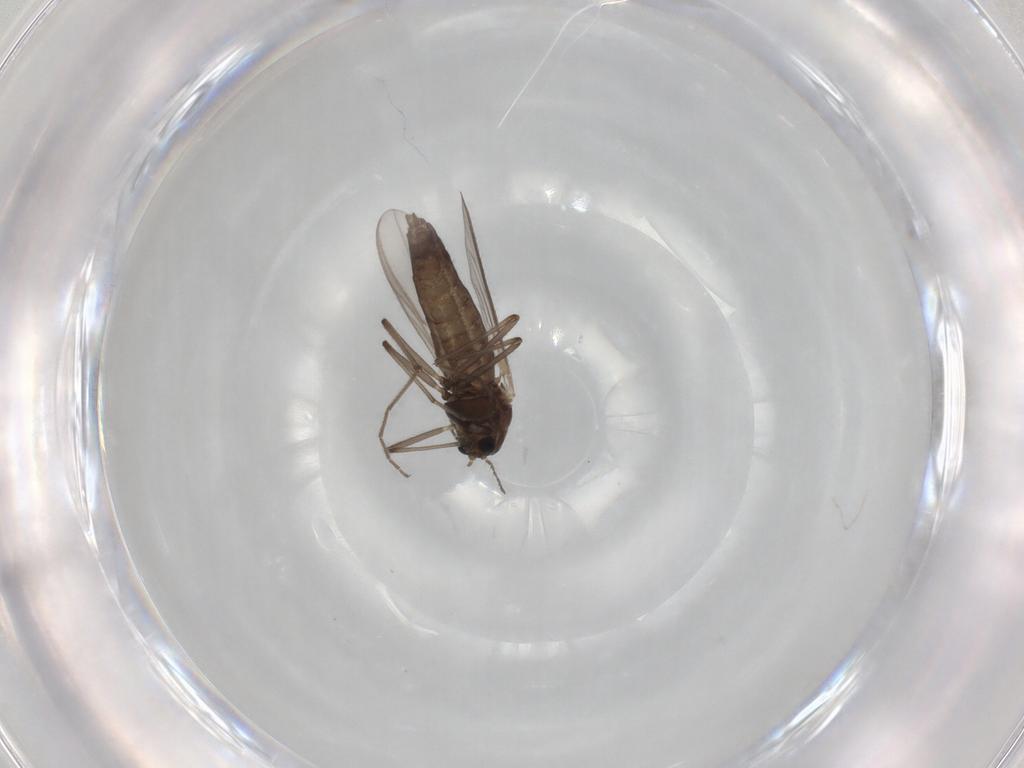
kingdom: Animalia
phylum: Arthropoda
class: Insecta
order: Diptera
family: Chironomidae
